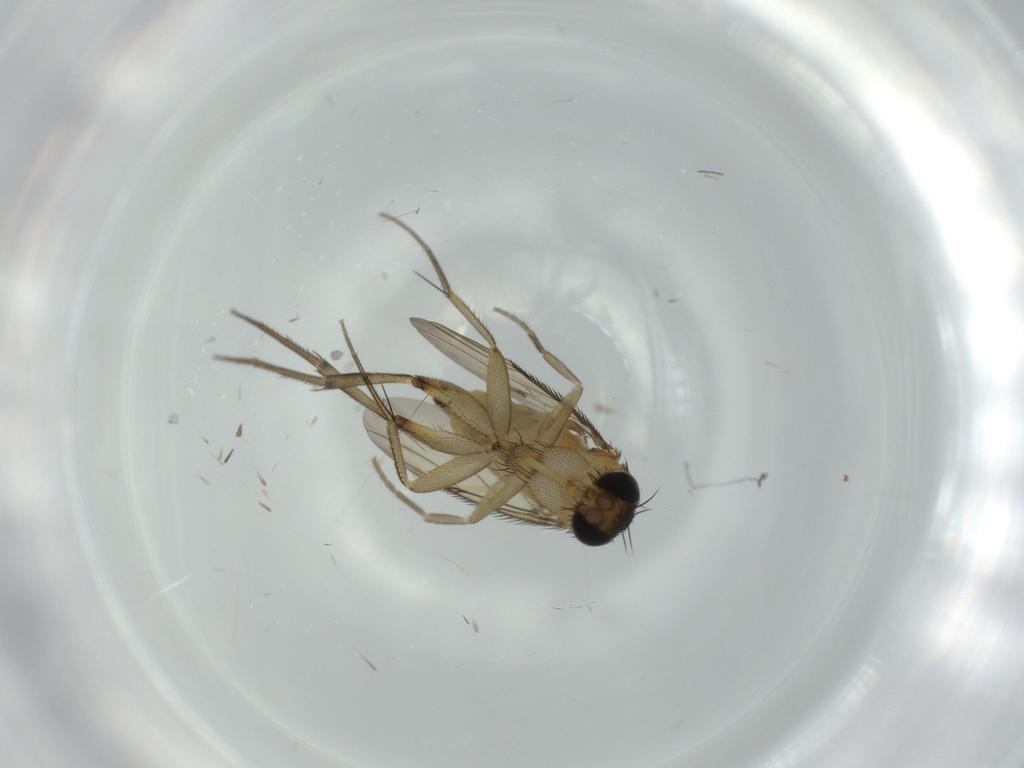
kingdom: Animalia
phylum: Arthropoda
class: Insecta
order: Diptera
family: Phoridae
